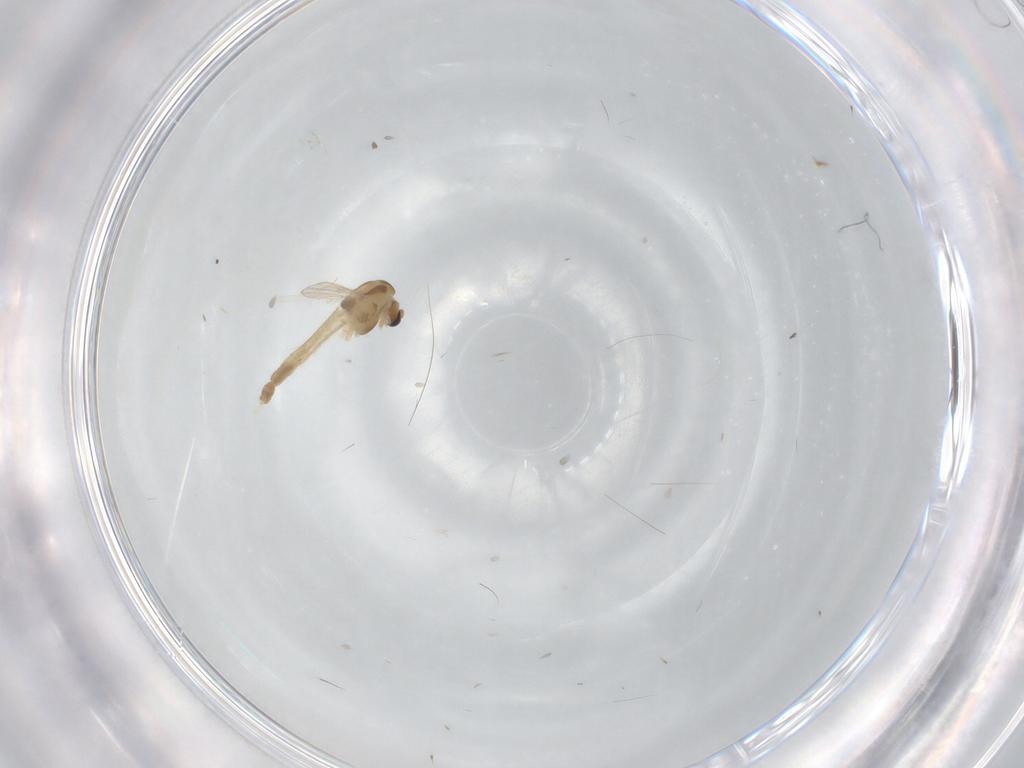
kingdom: Animalia
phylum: Arthropoda
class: Insecta
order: Diptera
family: Chironomidae
